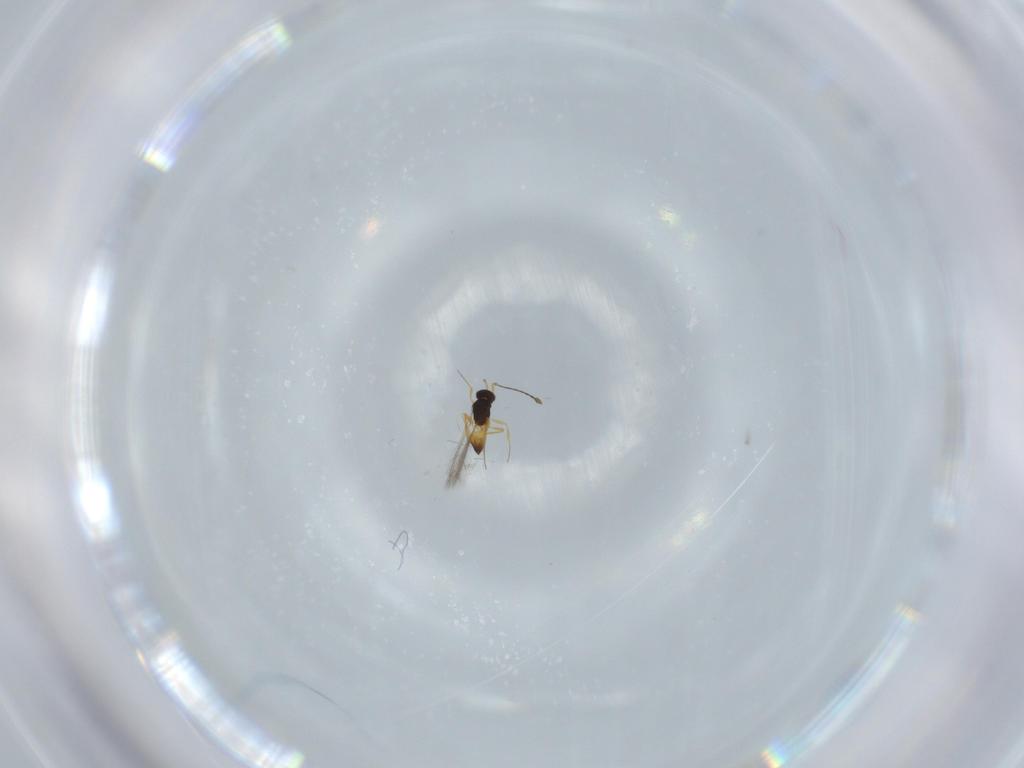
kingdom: Animalia
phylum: Arthropoda
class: Insecta
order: Hymenoptera
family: Mymaridae
